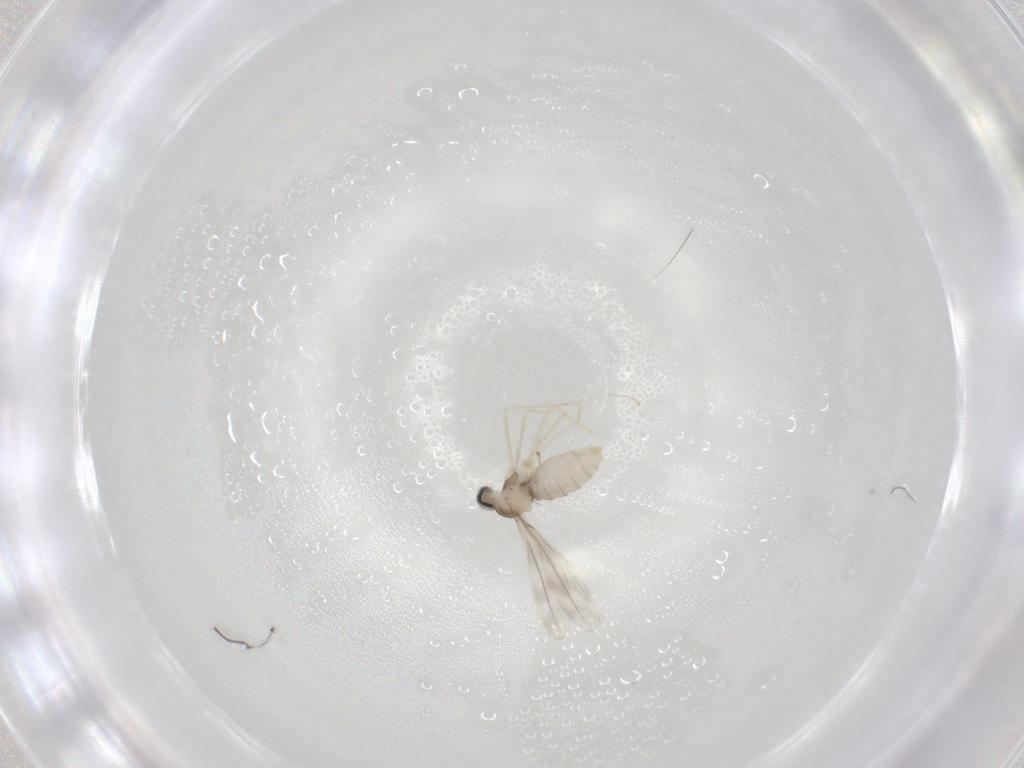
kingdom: Animalia
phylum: Arthropoda
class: Insecta
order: Diptera
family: Cecidomyiidae
